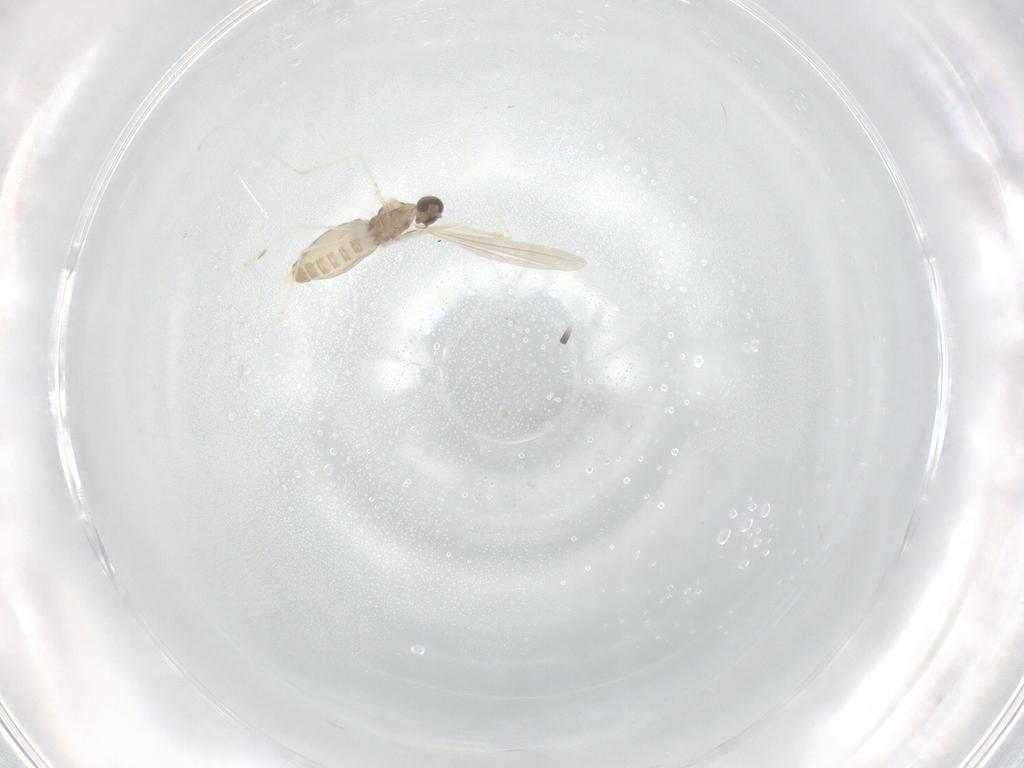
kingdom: Animalia
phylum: Arthropoda
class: Insecta
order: Diptera
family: Cecidomyiidae
